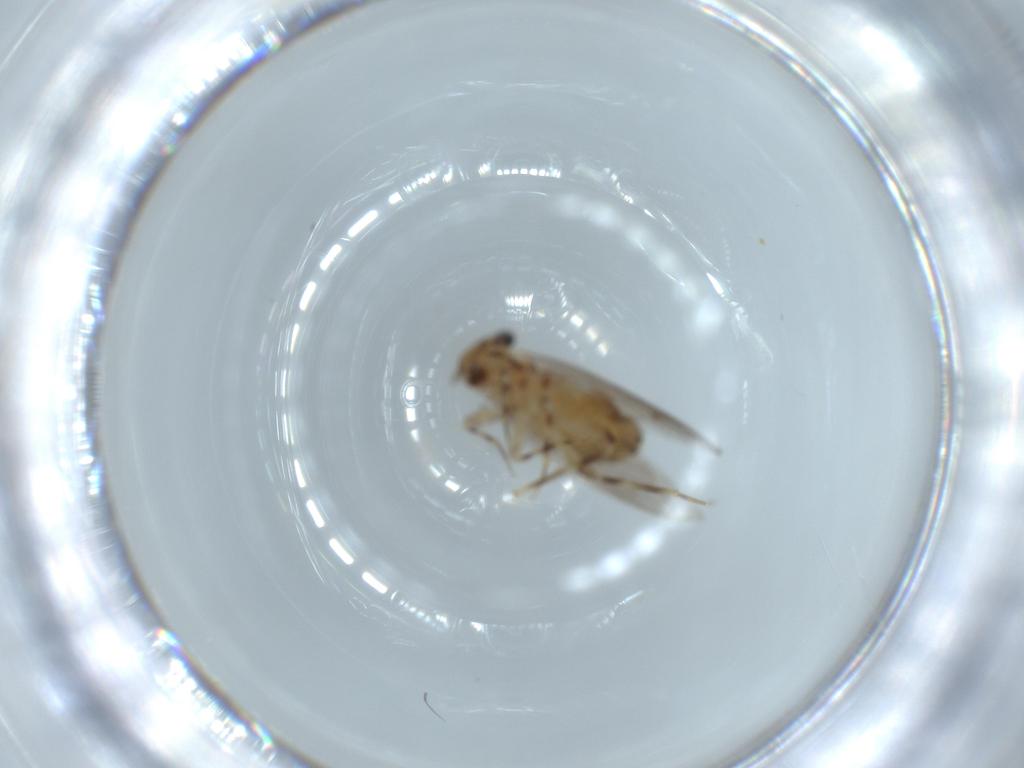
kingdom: Animalia
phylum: Arthropoda
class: Insecta
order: Psocodea
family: Lepidopsocidae
